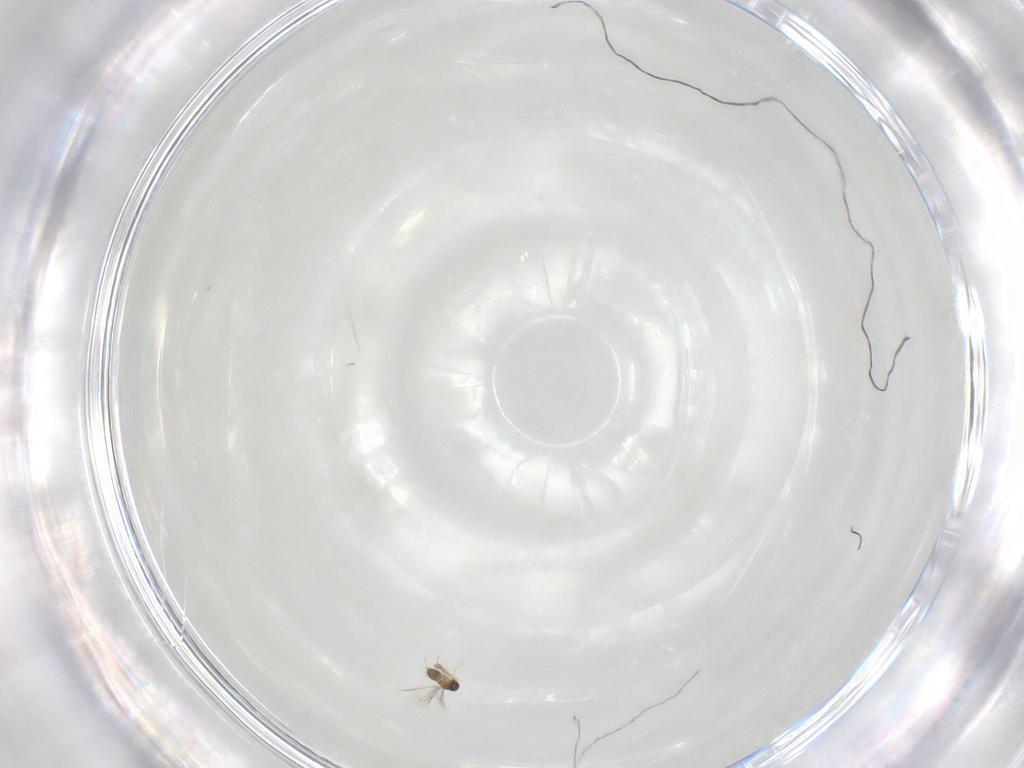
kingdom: Animalia
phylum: Arthropoda
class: Insecta
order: Hymenoptera
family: Mymaridae
